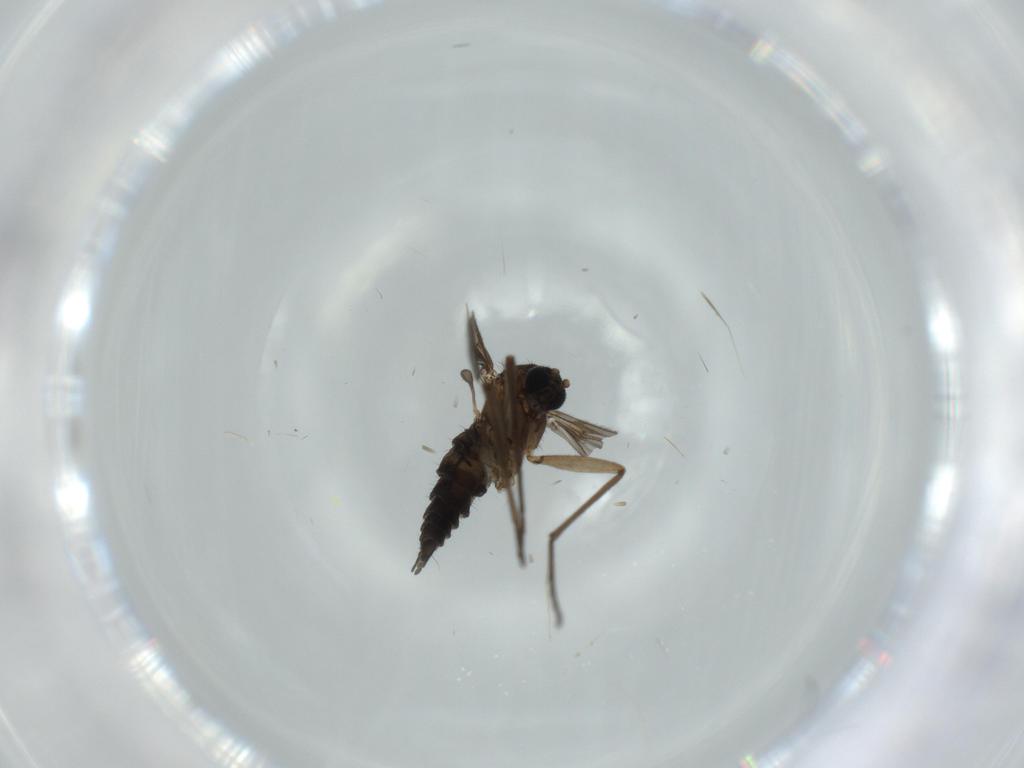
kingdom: Animalia
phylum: Arthropoda
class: Insecta
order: Diptera
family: Sciaridae
